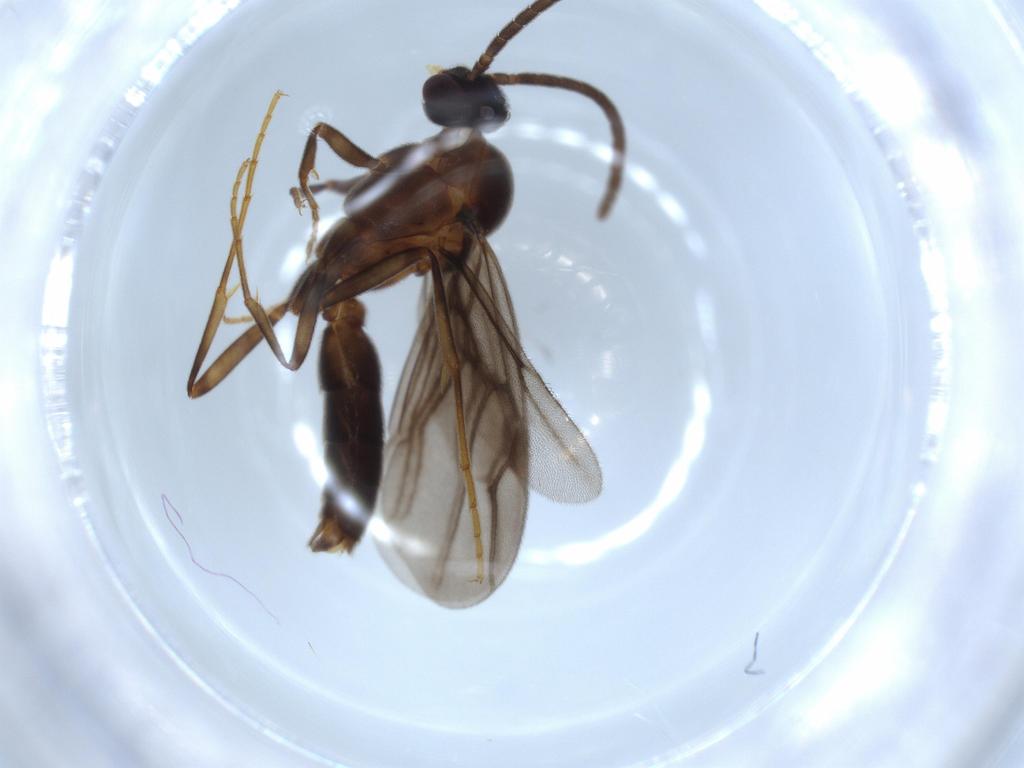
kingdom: Animalia
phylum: Arthropoda
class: Insecta
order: Hymenoptera
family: Formicidae
